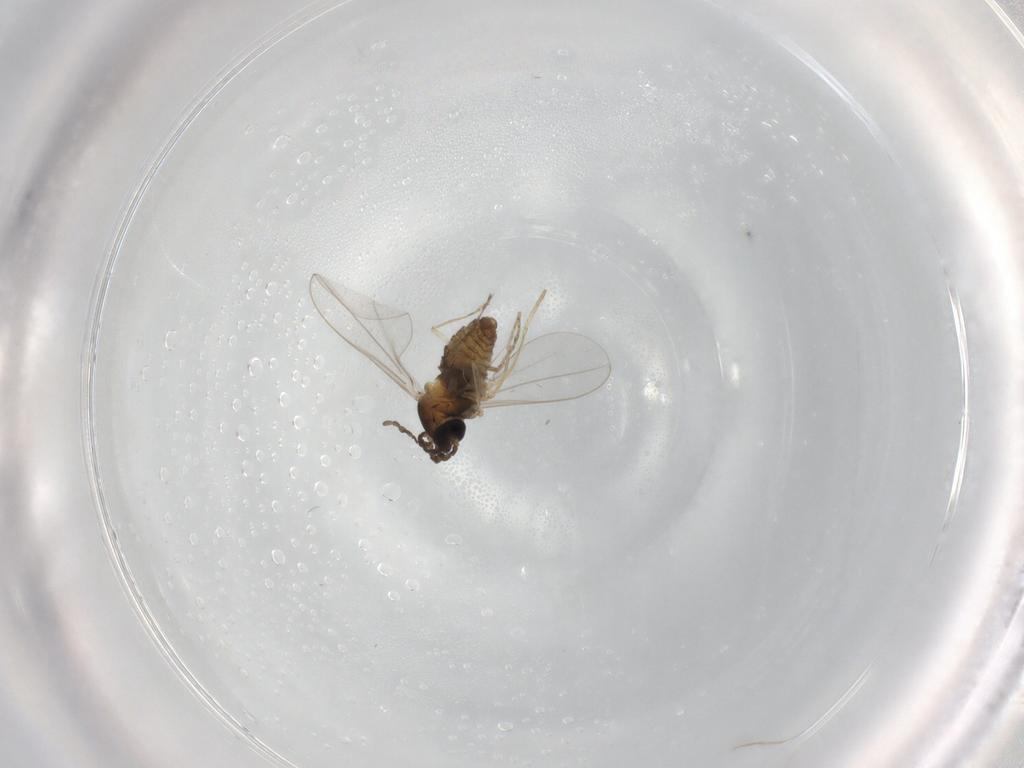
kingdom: Animalia
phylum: Arthropoda
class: Insecta
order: Diptera
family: Cecidomyiidae
